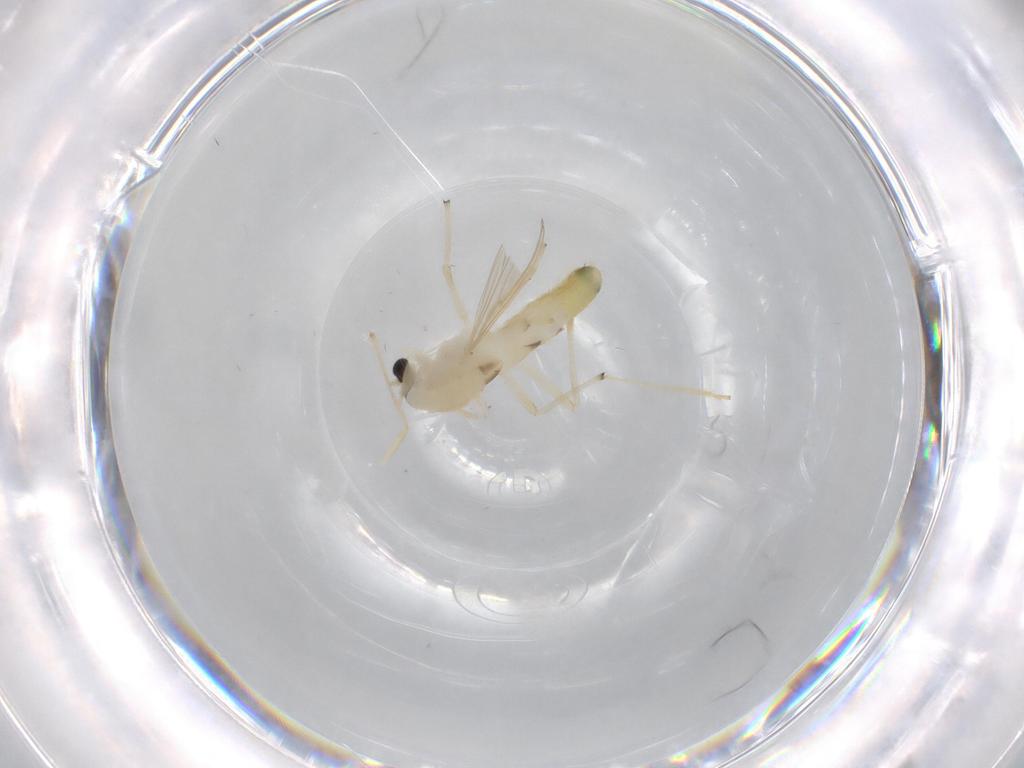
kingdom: Animalia
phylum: Arthropoda
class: Insecta
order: Diptera
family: Chironomidae
